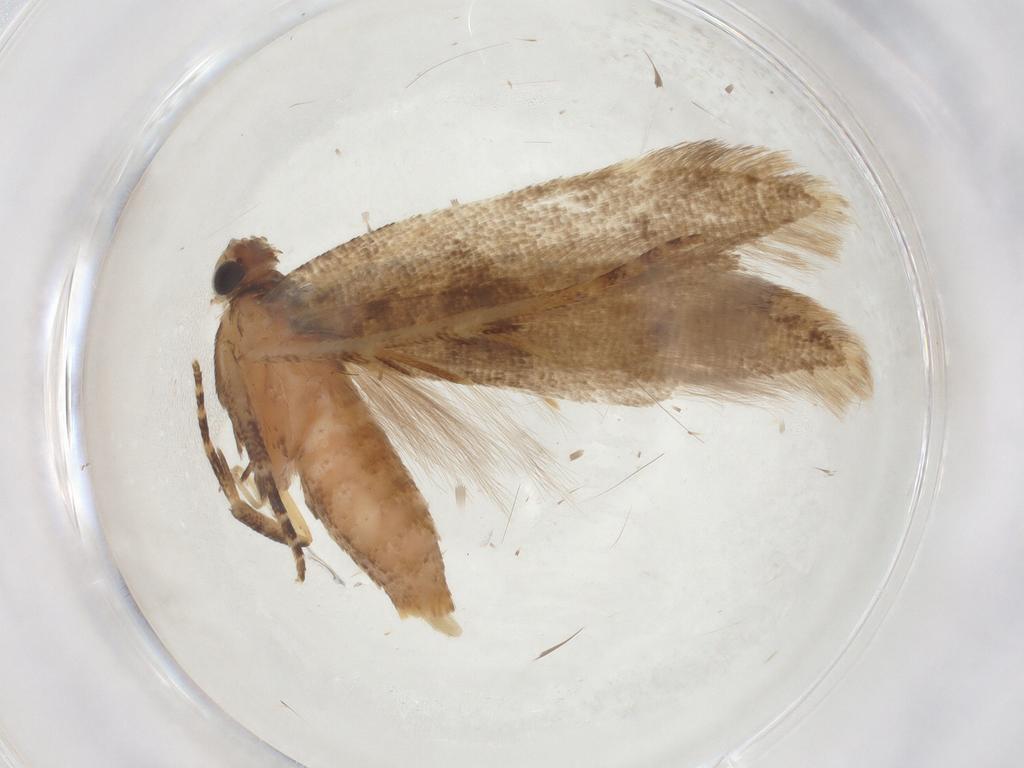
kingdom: Animalia
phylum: Arthropoda
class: Insecta
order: Lepidoptera
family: Gelechiidae
